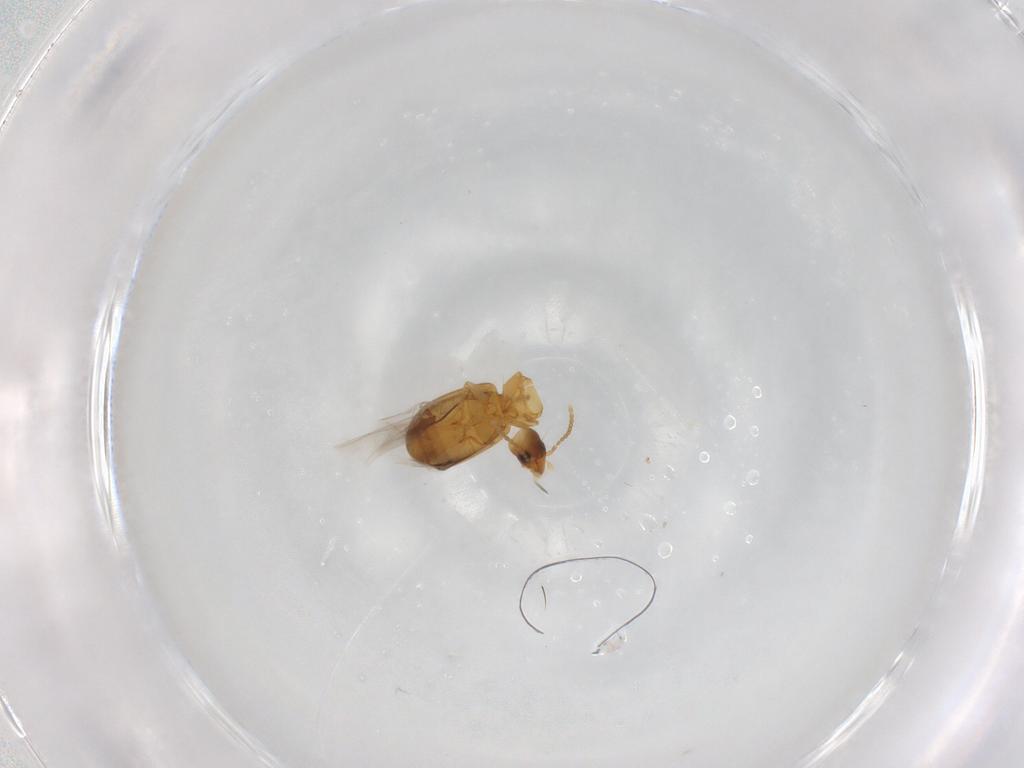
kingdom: Animalia
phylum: Arthropoda
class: Insecta
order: Coleoptera
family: Carabidae
